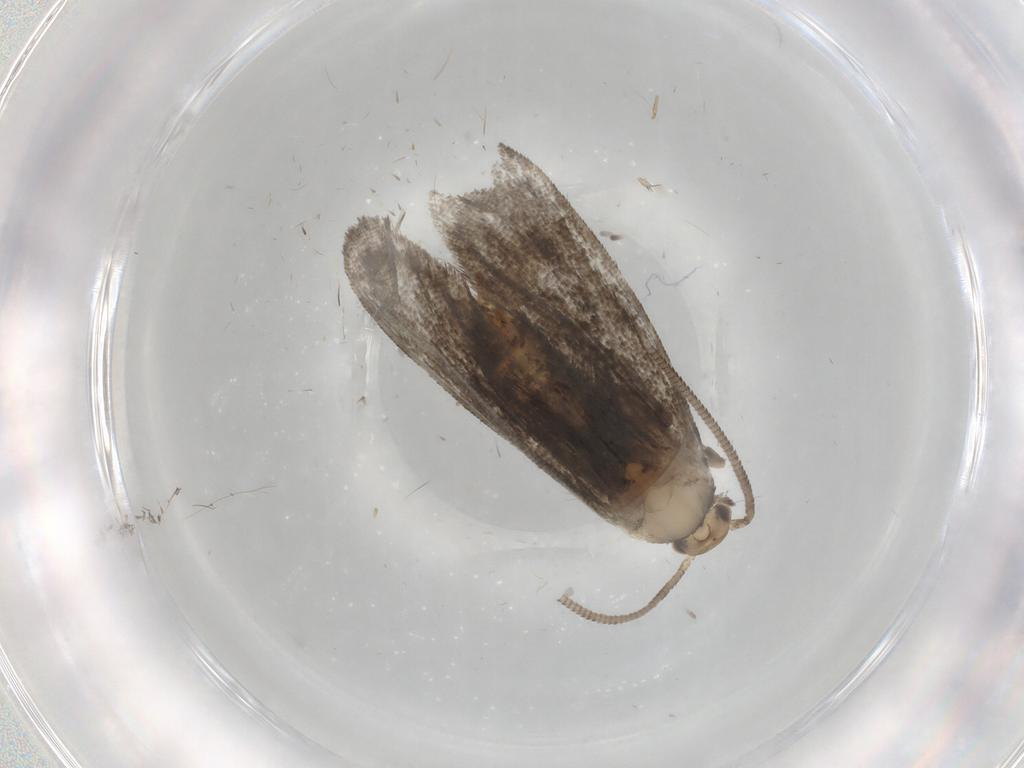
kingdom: Animalia
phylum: Arthropoda
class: Insecta
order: Lepidoptera
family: Dryadaulidae
